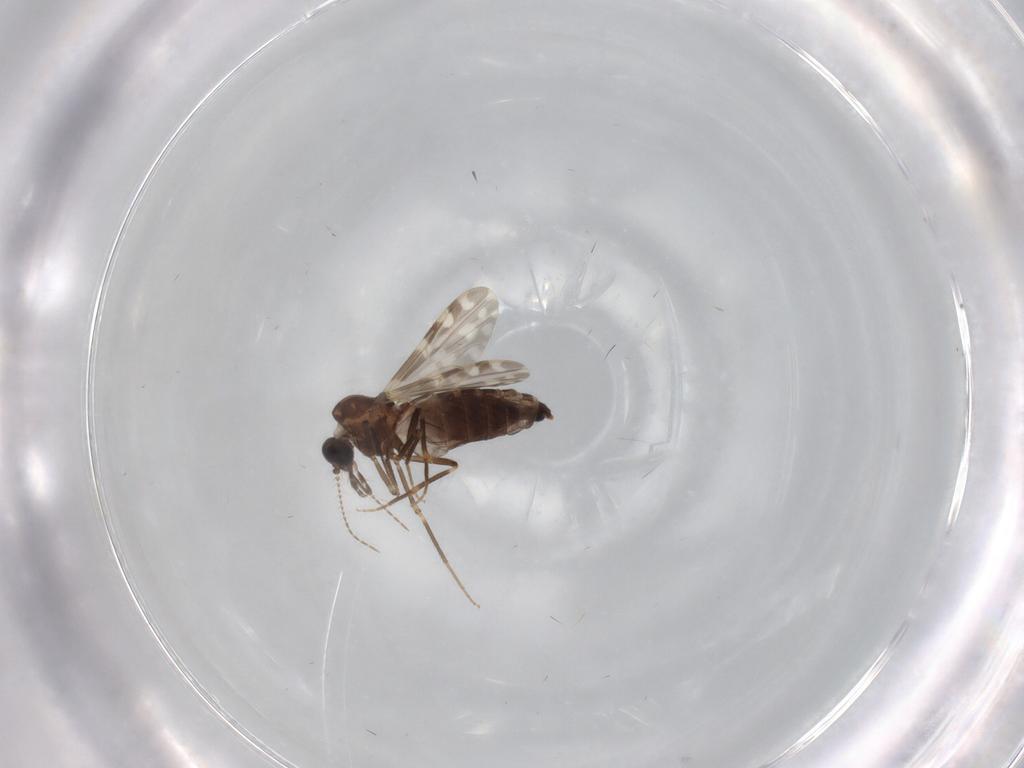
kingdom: Animalia
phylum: Arthropoda
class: Insecta
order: Diptera
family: Ceratopogonidae
